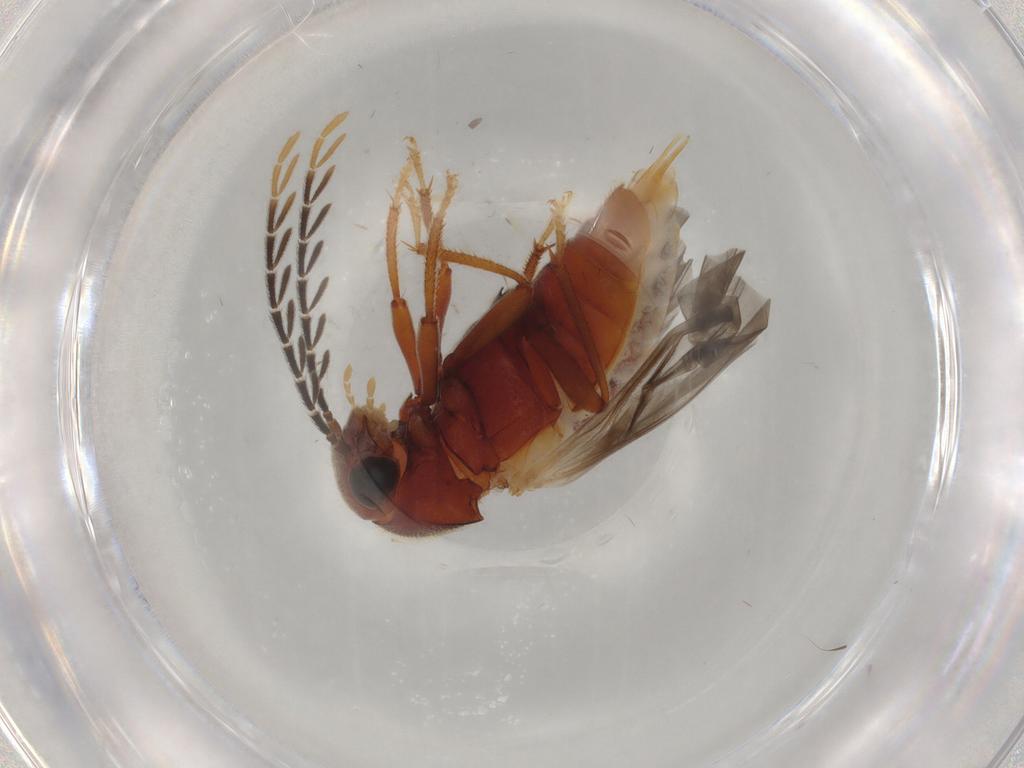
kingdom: Animalia
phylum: Arthropoda
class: Insecta
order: Coleoptera
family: Ptilodactylidae
